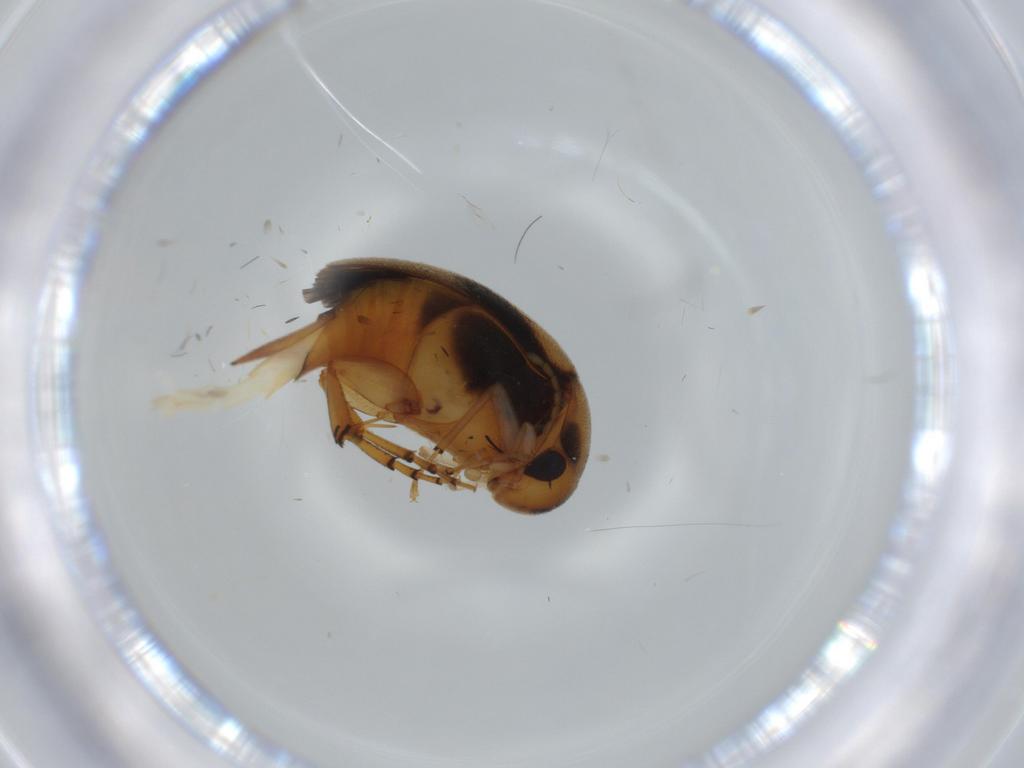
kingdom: Animalia
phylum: Arthropoda
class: Insecta
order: Coleoptera
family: Mordellidae
